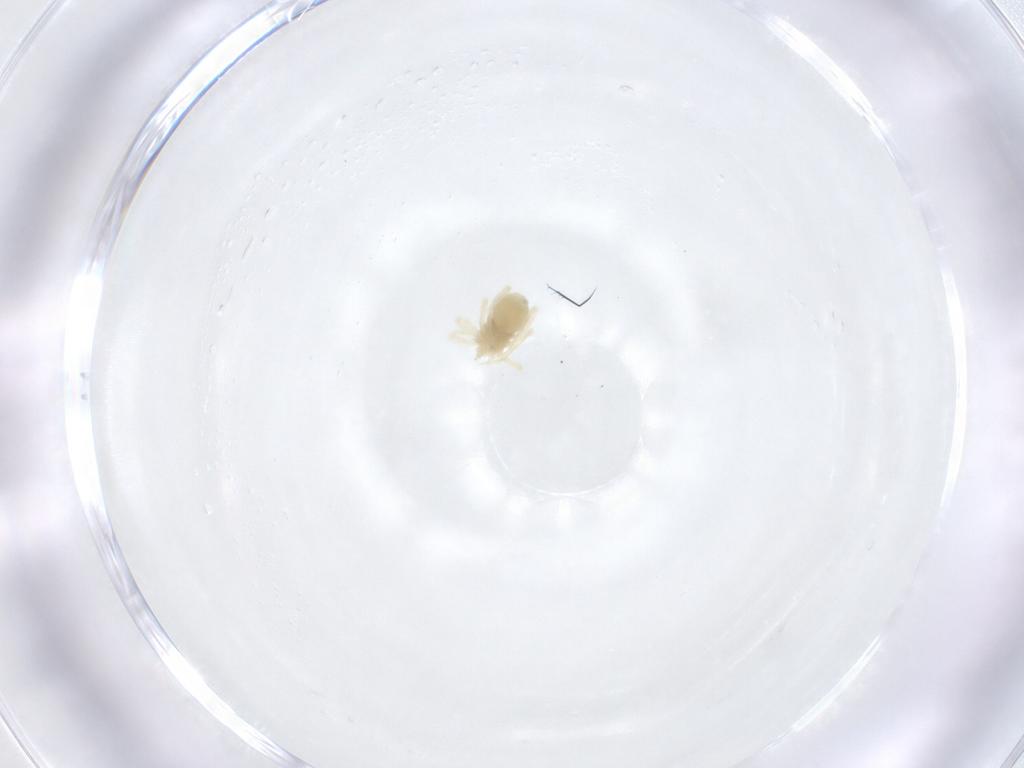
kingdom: Animalia
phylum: Arthropoda
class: Arachnida
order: Trombidiformes
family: Anystidae
